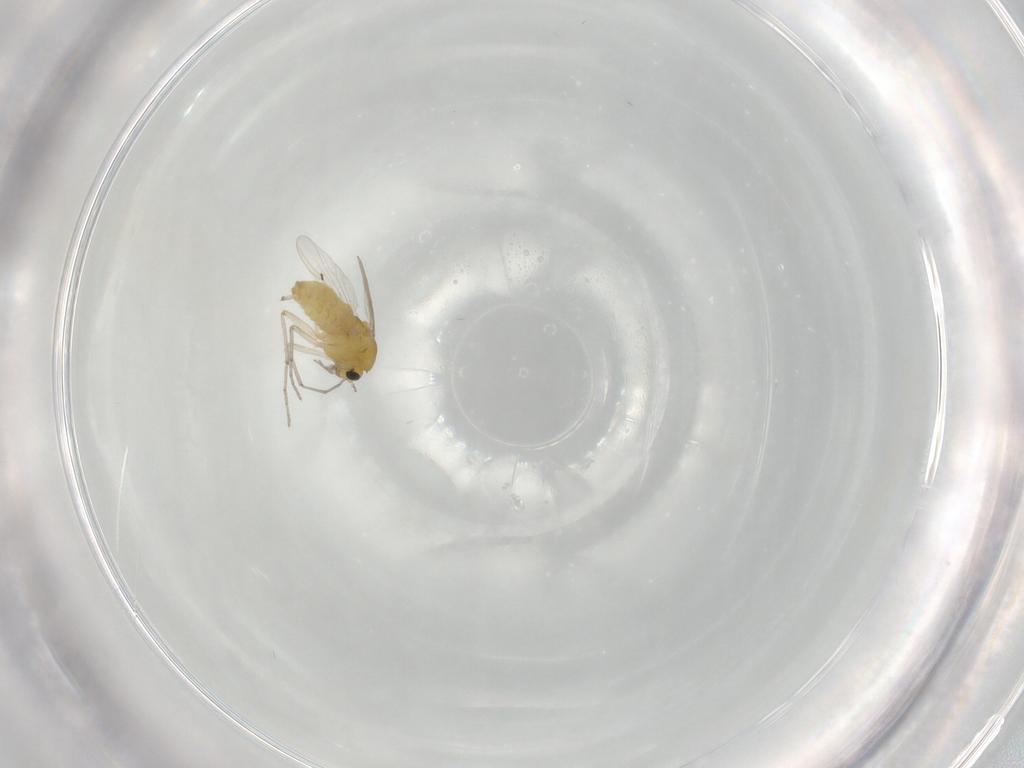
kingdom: Animalia
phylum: Arthropoda
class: Insecta
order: Diptera
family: Chironomidae
